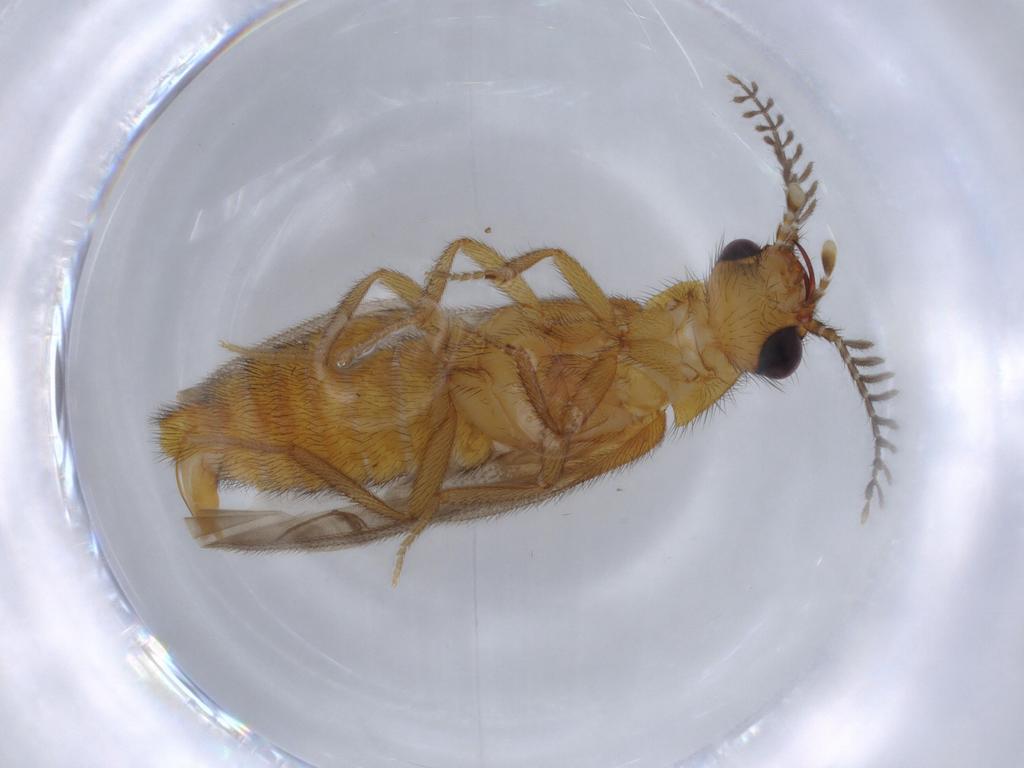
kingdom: Animalia
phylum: Arthropoda
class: Insecta
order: Coleoptera
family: Phengodidae
